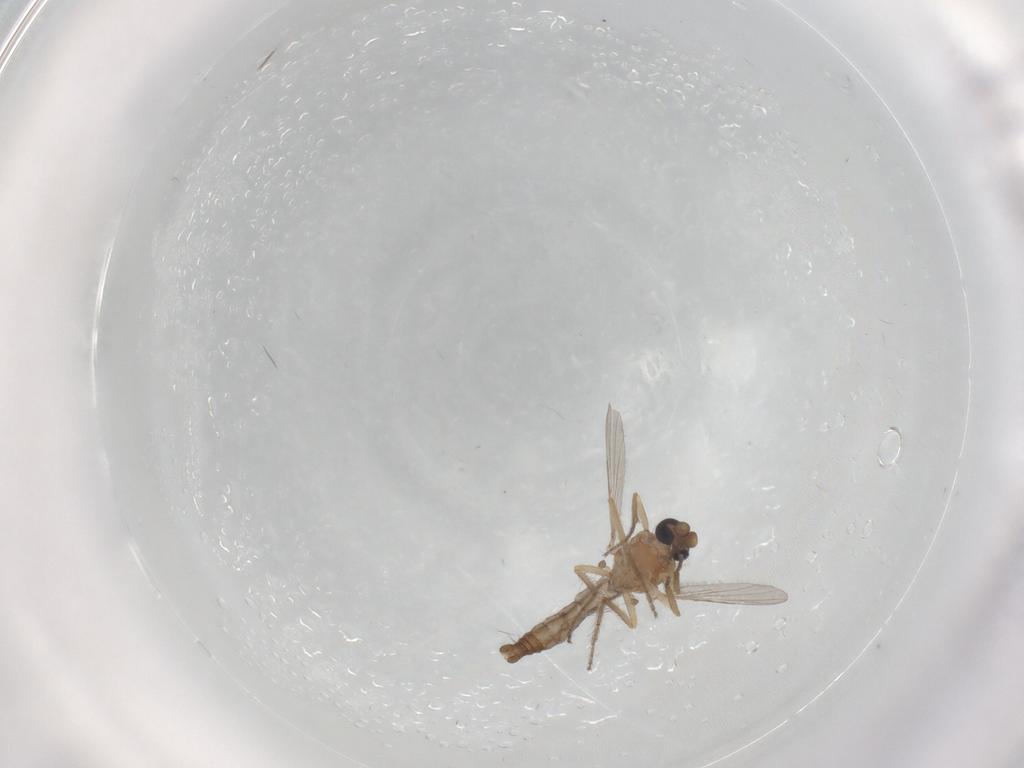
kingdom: Animalia
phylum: Arthropoda
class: Insecta
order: Diptera
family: Ceratopogonidae
